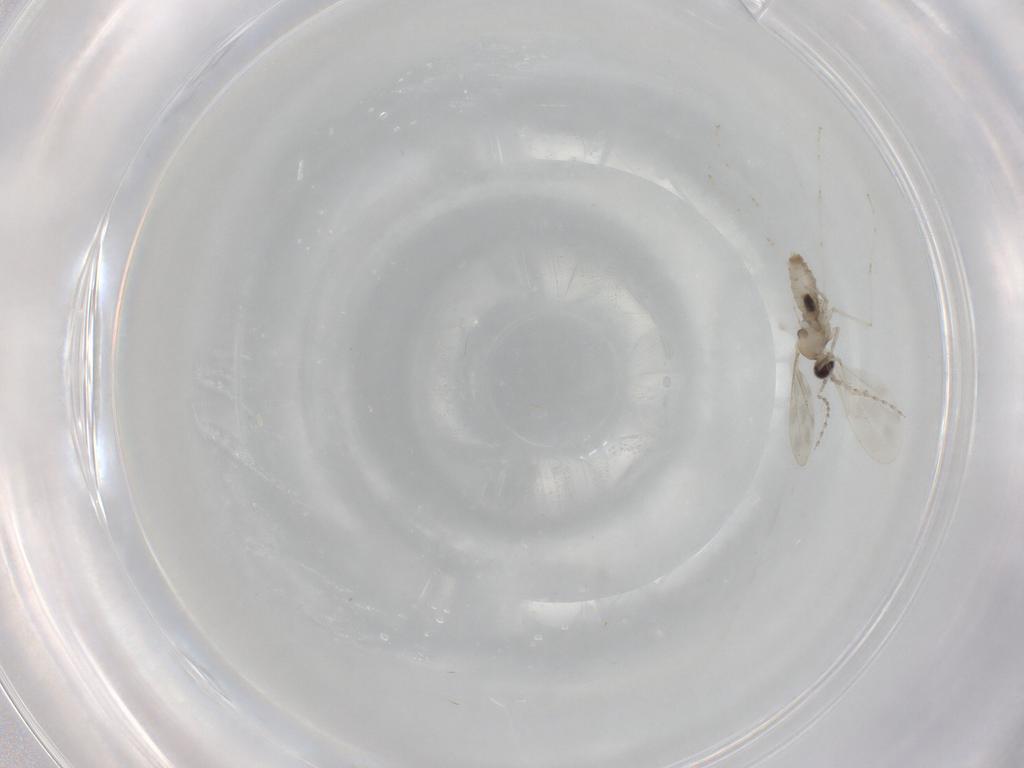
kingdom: Animalia
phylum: Arthropoda
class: Insecta
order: Diptera
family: Cecidomyiidae
